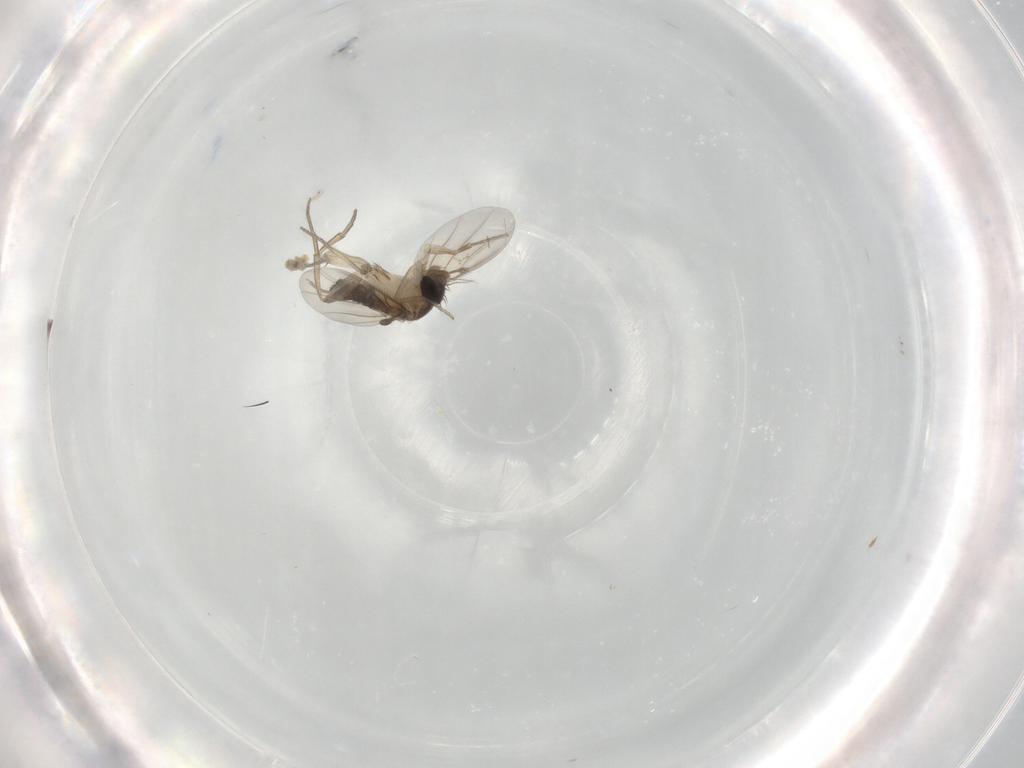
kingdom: Animalia
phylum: Arthropoda
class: Insecta
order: Diptera
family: Phoridae
